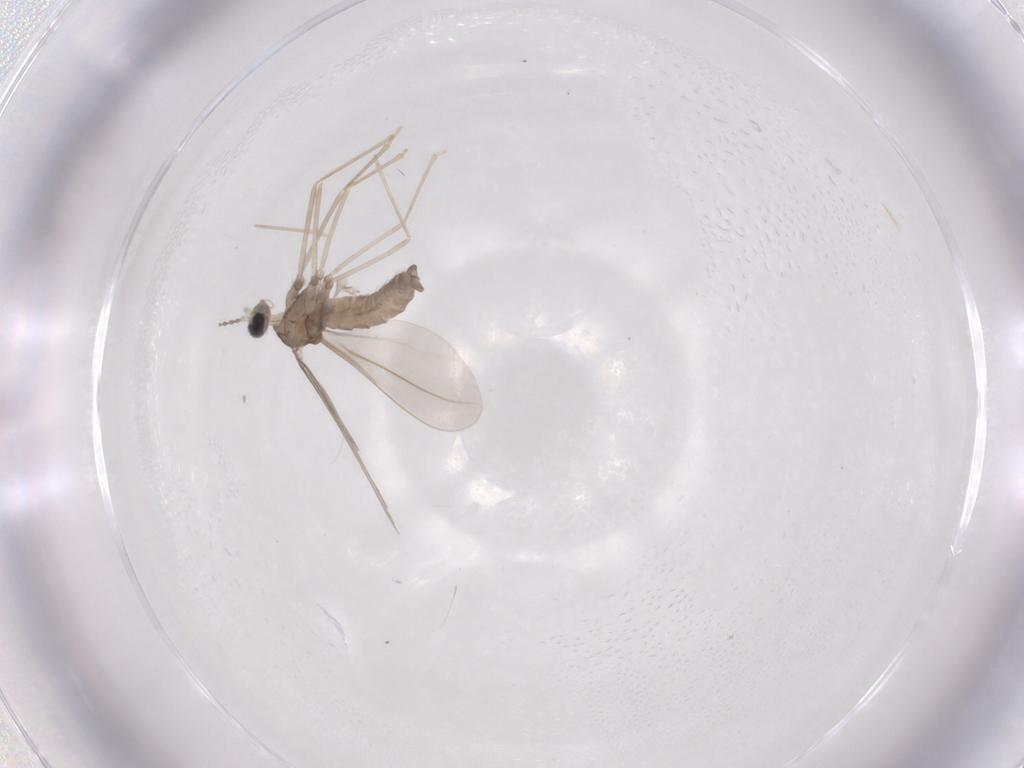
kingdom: Animalia
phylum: Arthropoda
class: Insecta
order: Diptera
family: Cecidomyiidae
